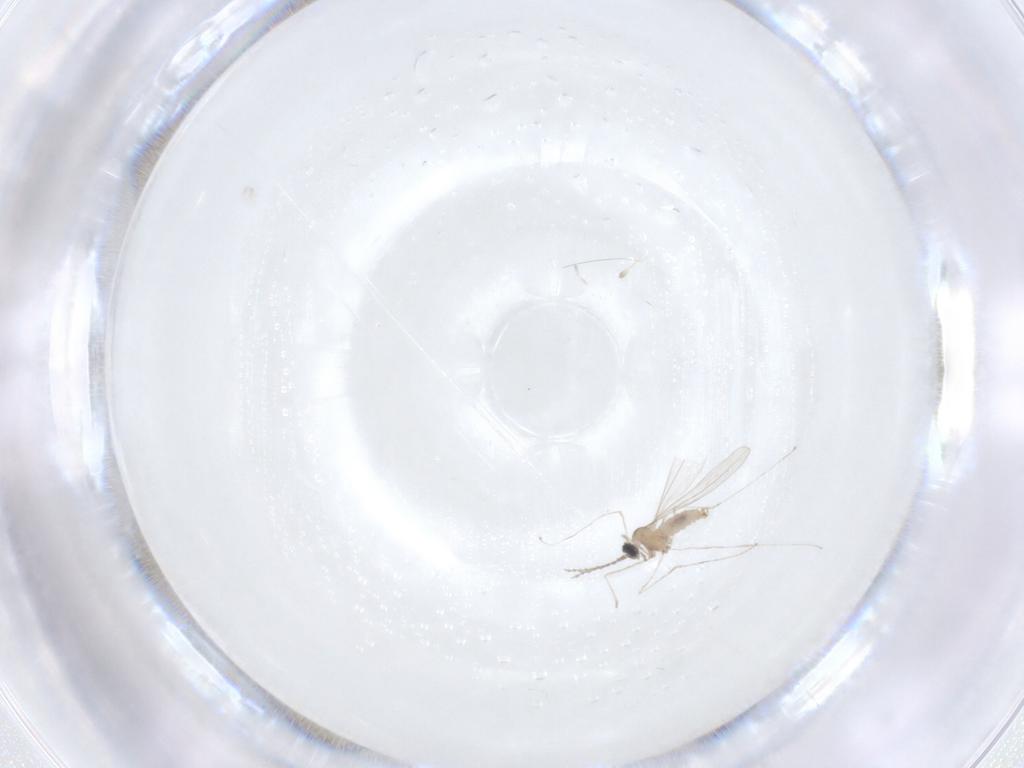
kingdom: Animalia
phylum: Arthropoda
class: Insecta
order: Diptera
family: Cecidomyiidae
